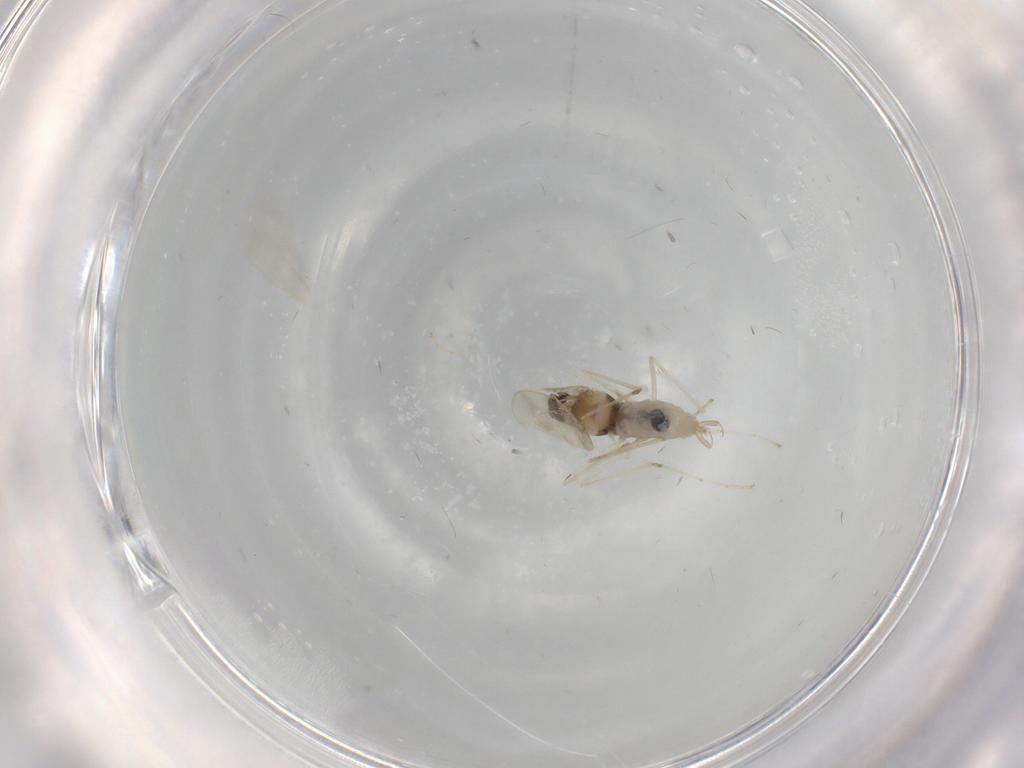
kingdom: Animalia
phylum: Arthropoda
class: Insecta
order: Diptera
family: Cecidomyiidae
